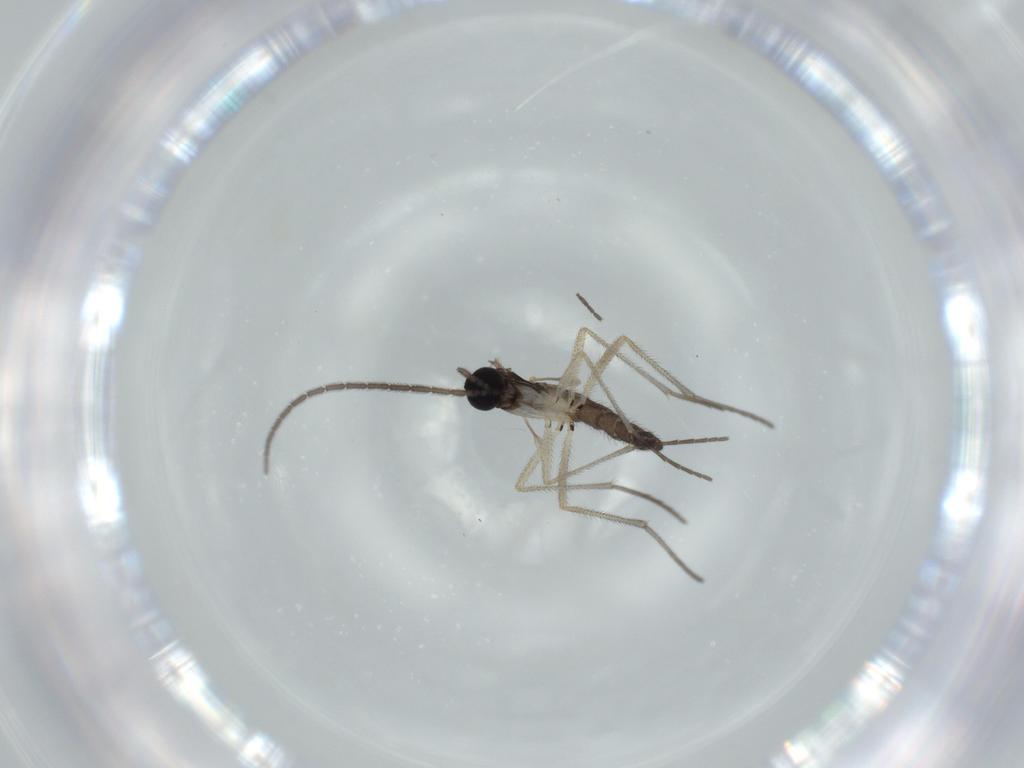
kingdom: Animalia
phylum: Arthropoda
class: Insecta
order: Diptera
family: Sciaridae
